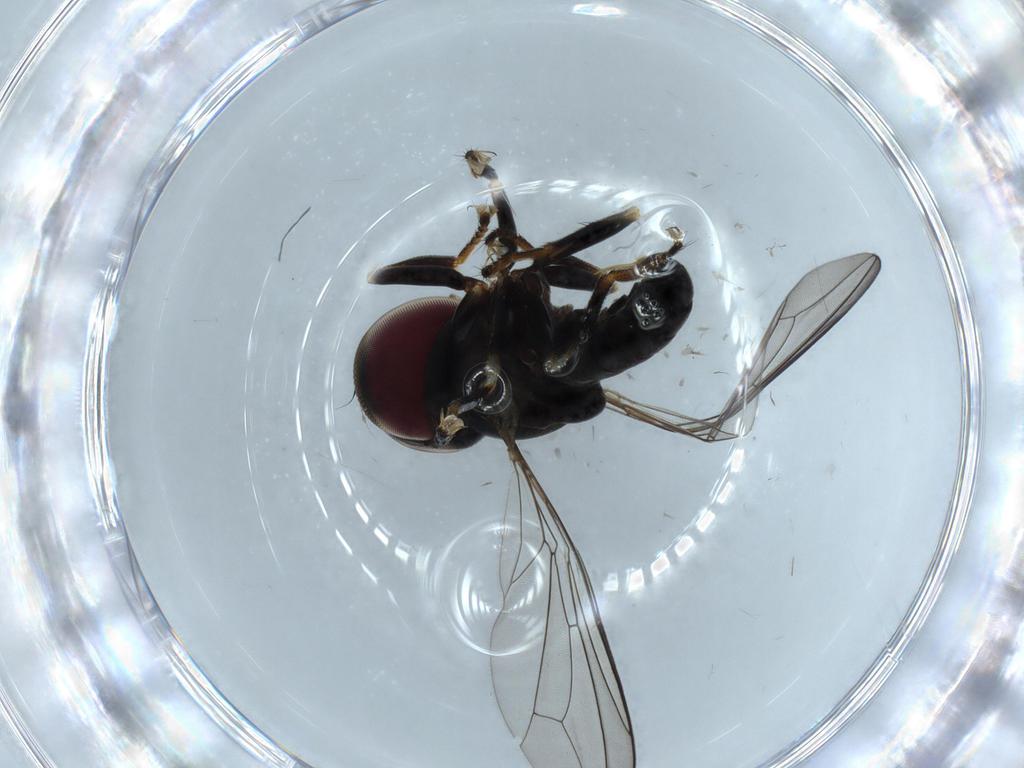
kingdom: Animalia
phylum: Arthropoda
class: Insecta
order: Diptera
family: Pipunculidae
